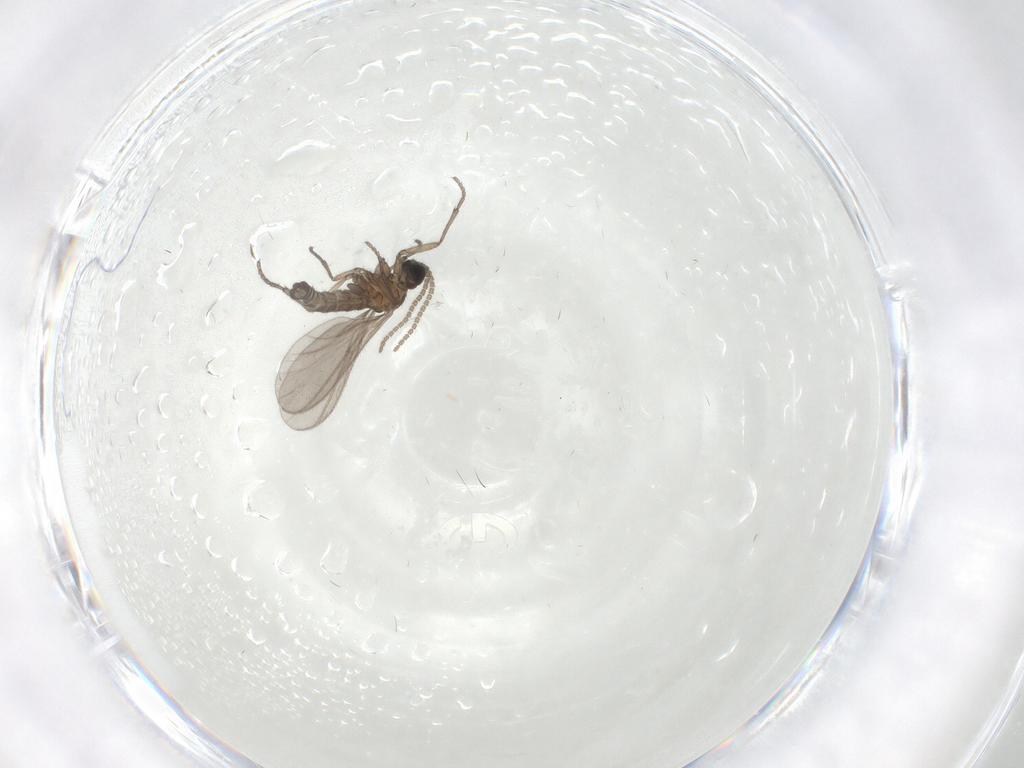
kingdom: Animalia
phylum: Arthropoda
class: Insecta
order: Diptera
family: Sciaridae
